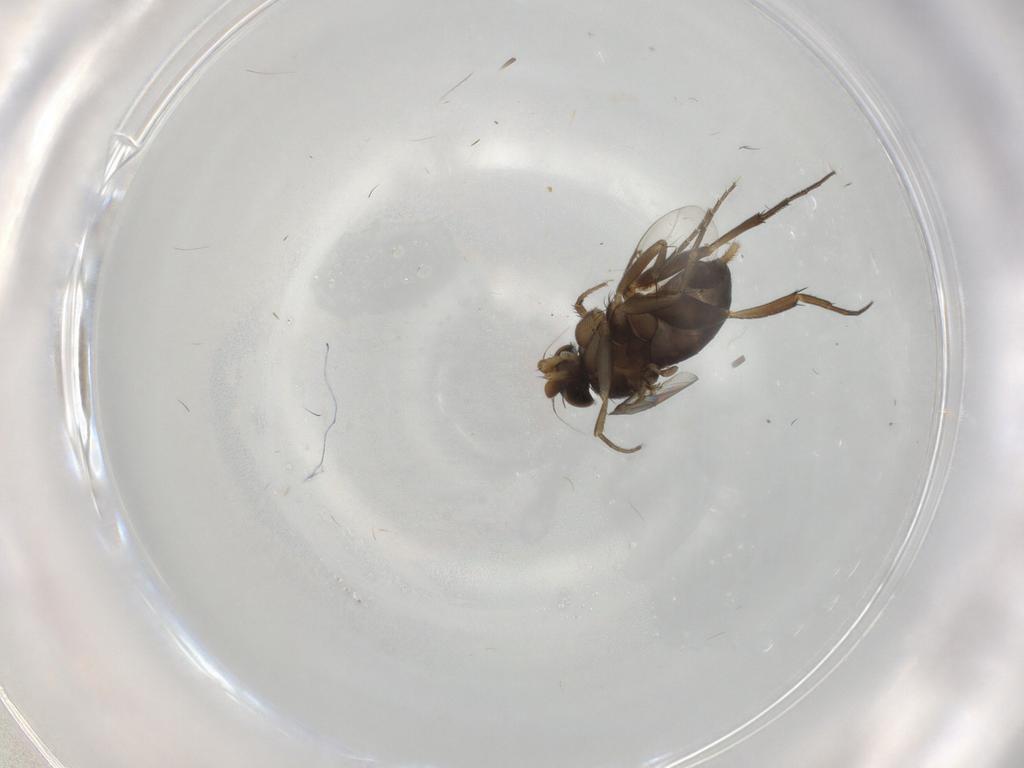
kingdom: Animalia
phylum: Arthropoda
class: Insecta
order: Diptera
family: Phoridae
